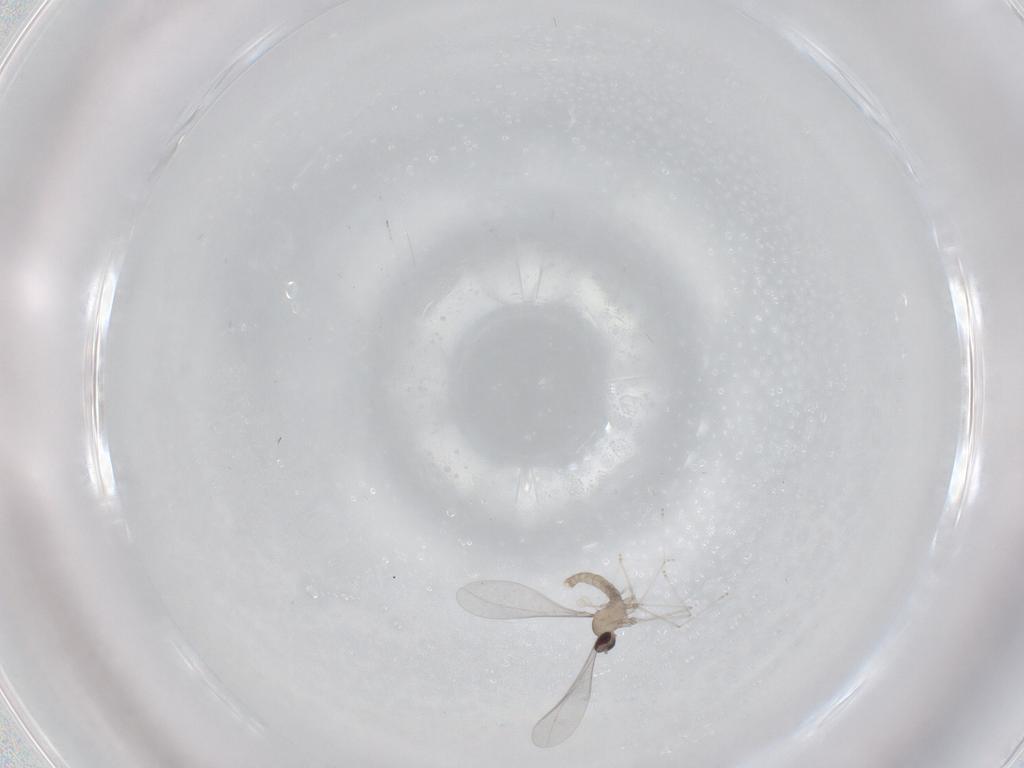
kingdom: Animalia
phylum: Arthropoda
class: Insecta
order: Diptera
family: Cecidomyiidae
